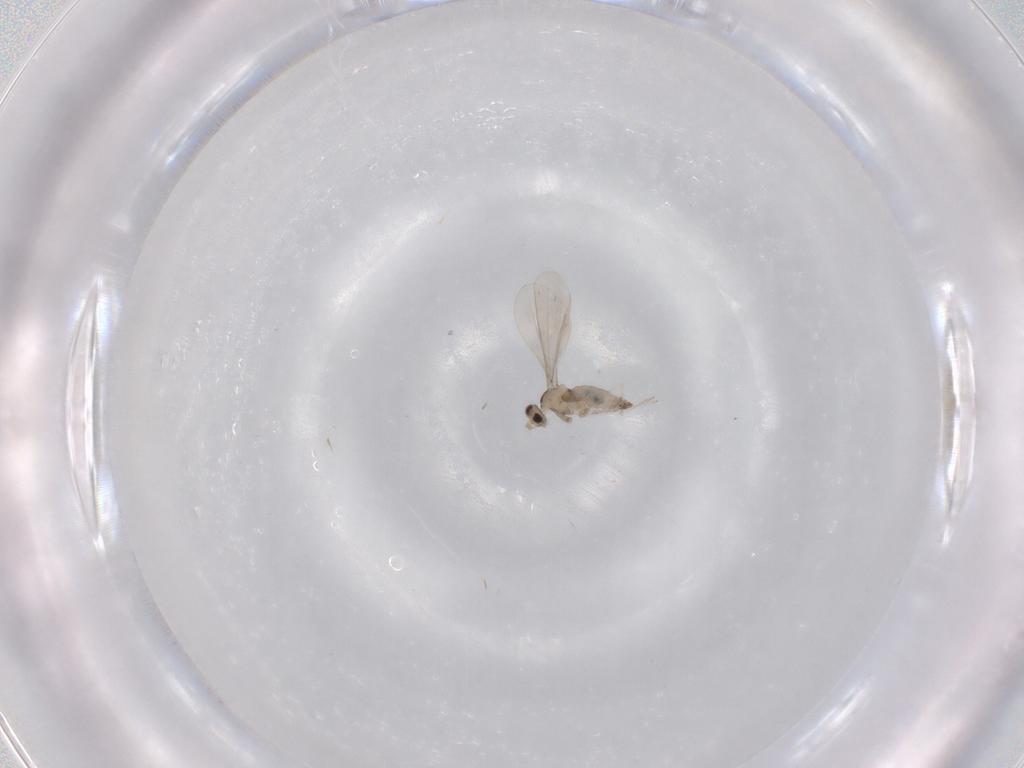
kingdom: Animalia
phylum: Arthropoda
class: Insecta
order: Diptera
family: Cecidomyiidae
